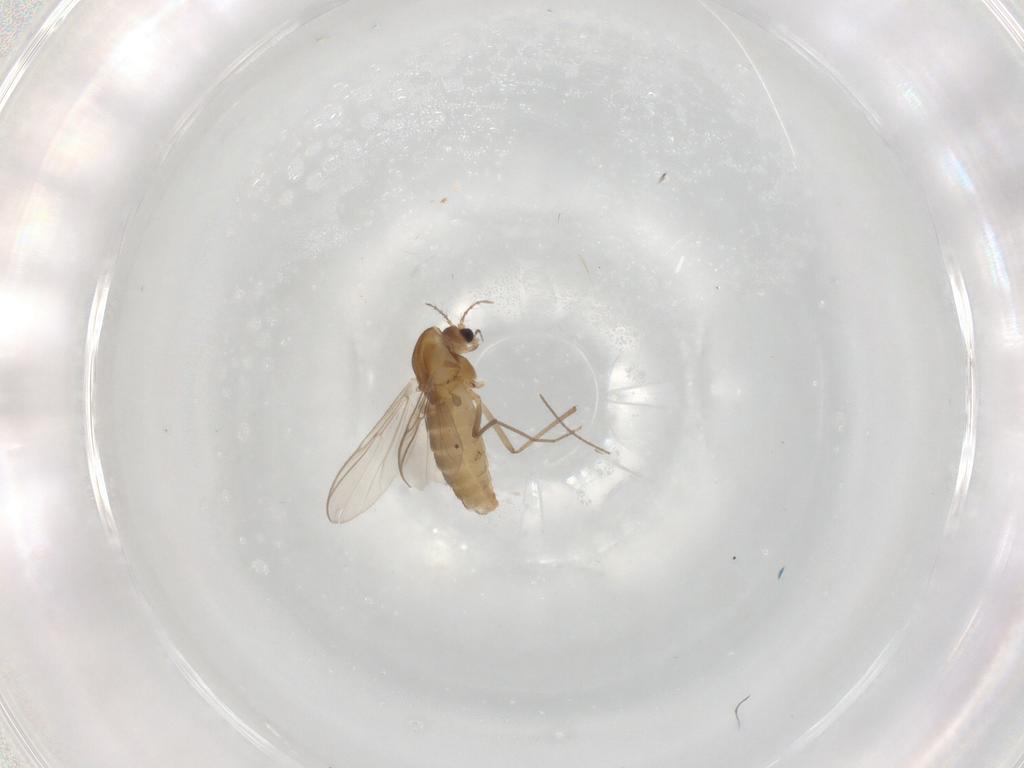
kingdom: Animalia
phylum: Arthropoda
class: Insecta
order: Diptera
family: Chironomidae
